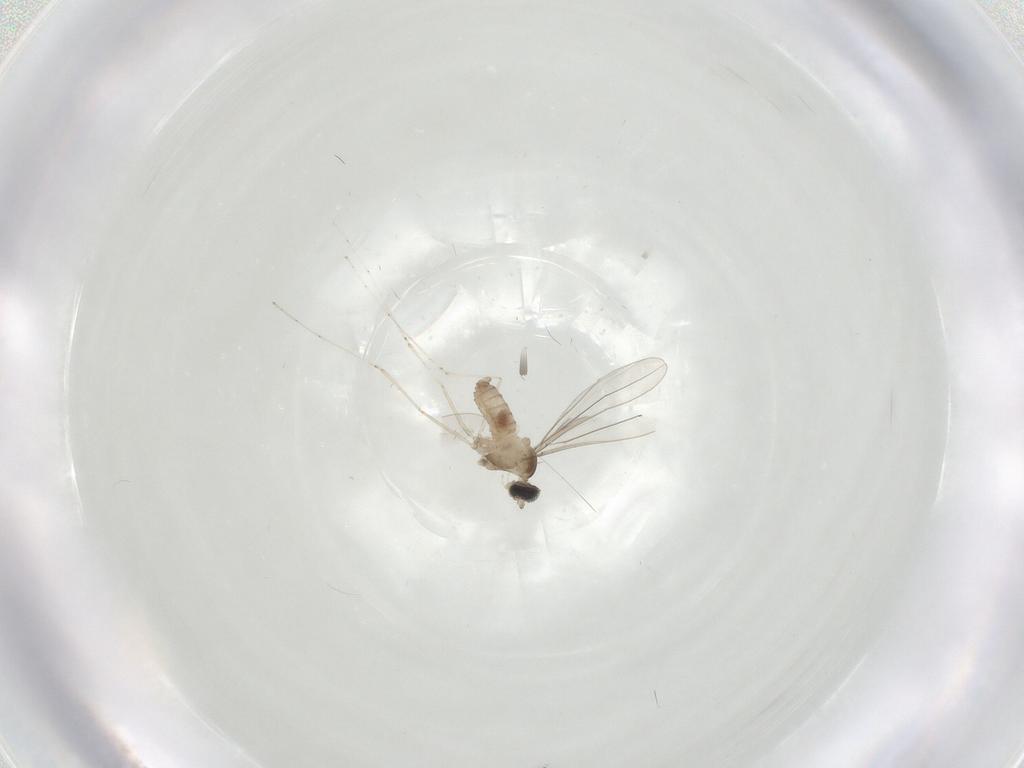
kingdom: Animalia
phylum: Arthropoda
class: Insecta
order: Diptera
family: Cecidomyiidae
